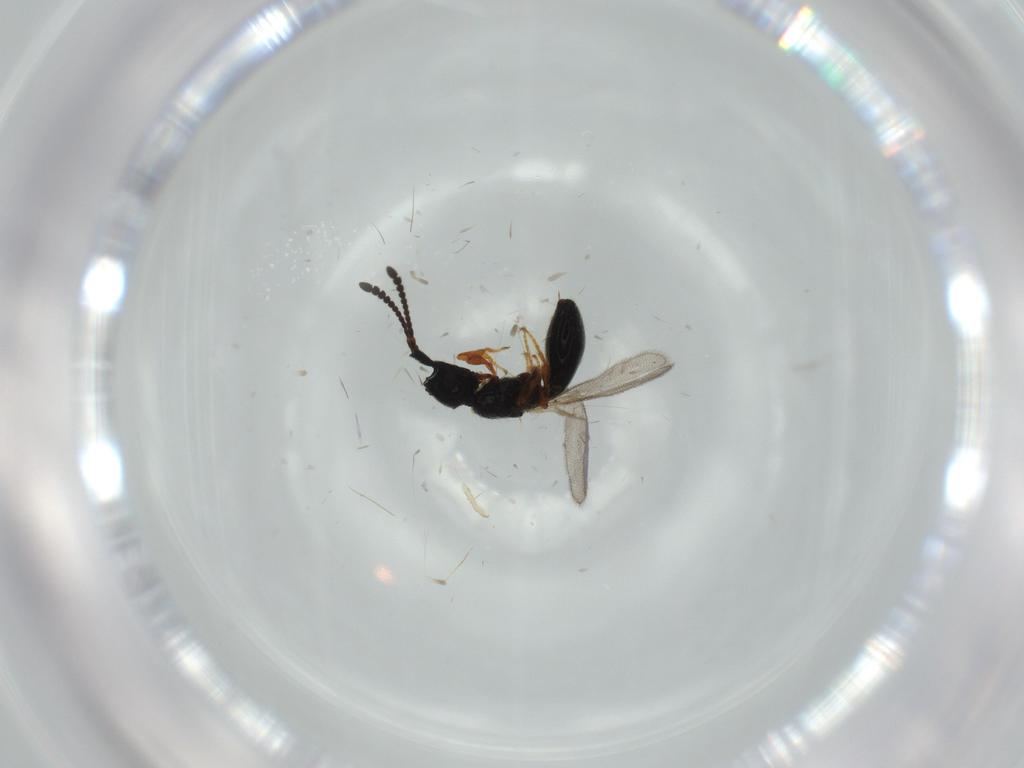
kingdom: Animalia
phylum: Arthropoda
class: Insecta
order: Hymenoptera
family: Diapriidae
